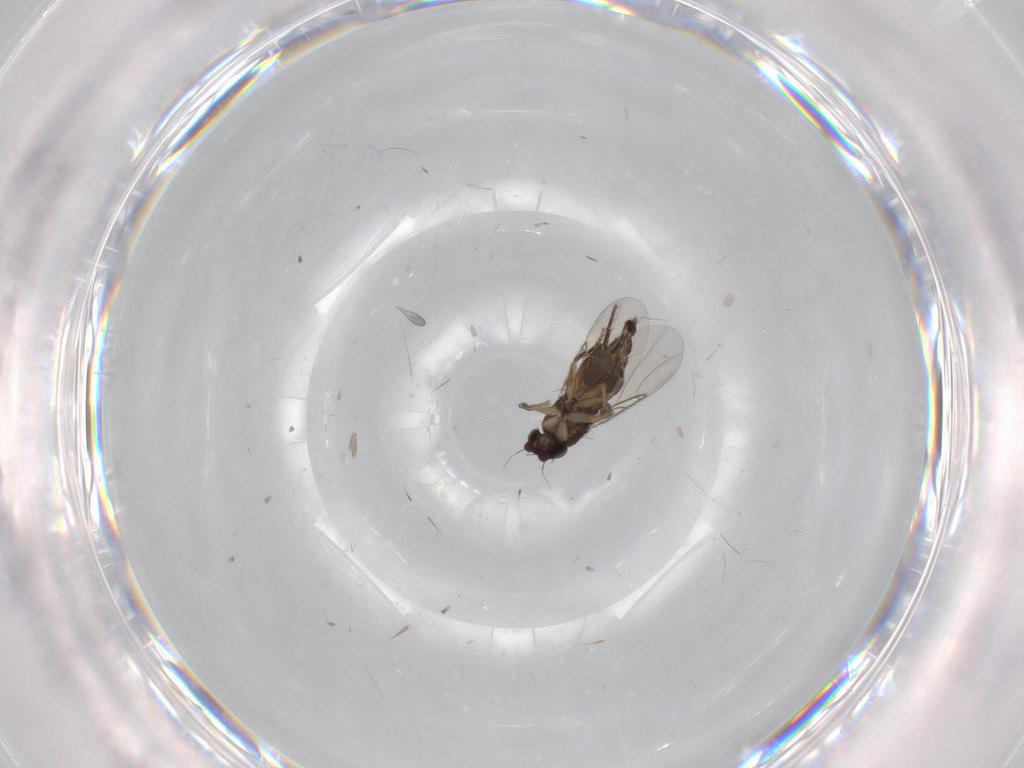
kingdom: Animalia
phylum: Arthropoda
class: Insecta
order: Diptera
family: Phoridae
